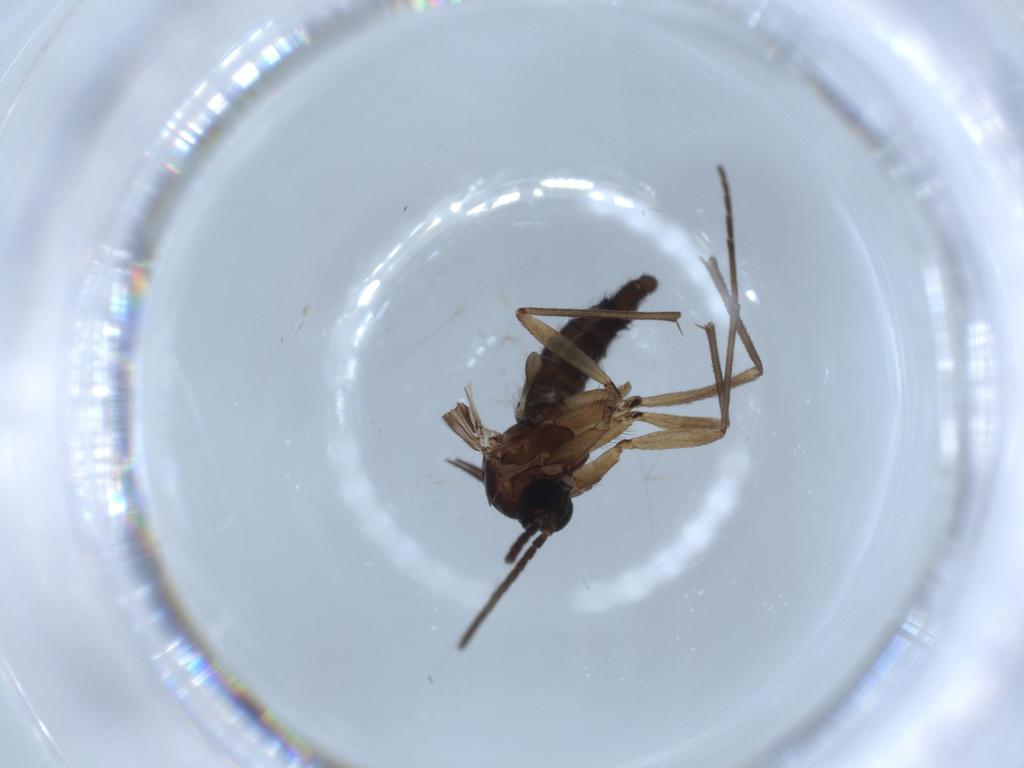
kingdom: Animalia
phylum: Arthropoda
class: Insecta
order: Diptera
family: Sciaridae
